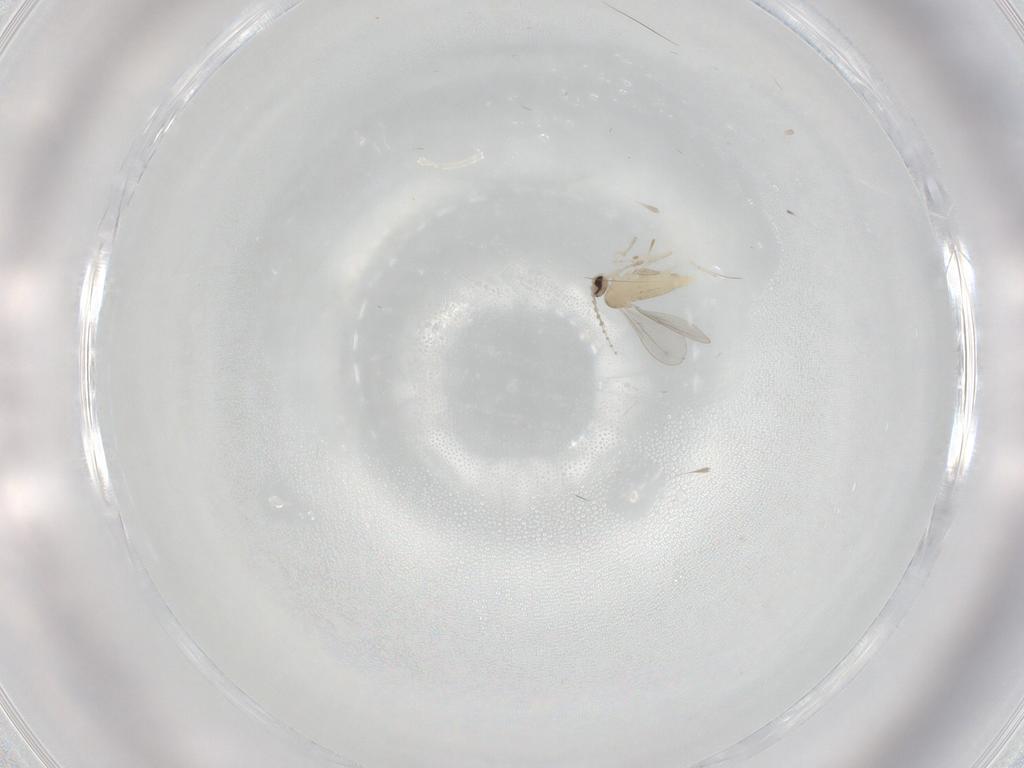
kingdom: Animalia
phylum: Arthropoda
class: Insecta
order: Diptera
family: Cecidomyiidae
